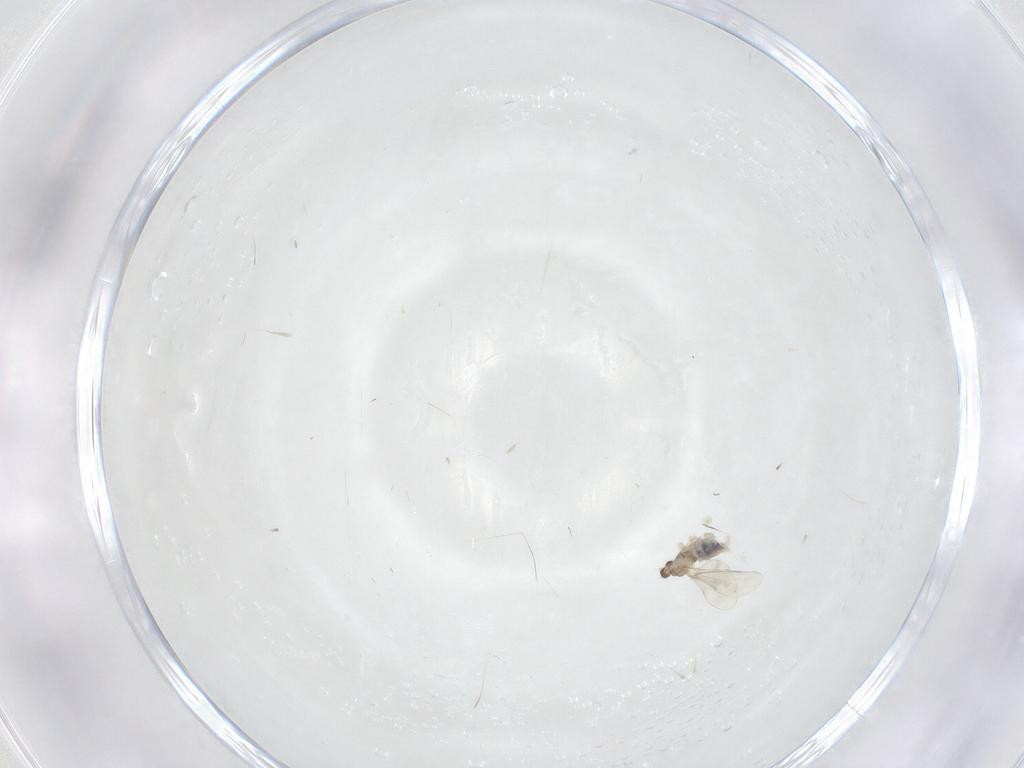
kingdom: Animalia
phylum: Arthropoda
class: Insecta
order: Diptera
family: Cecidomyiidae
